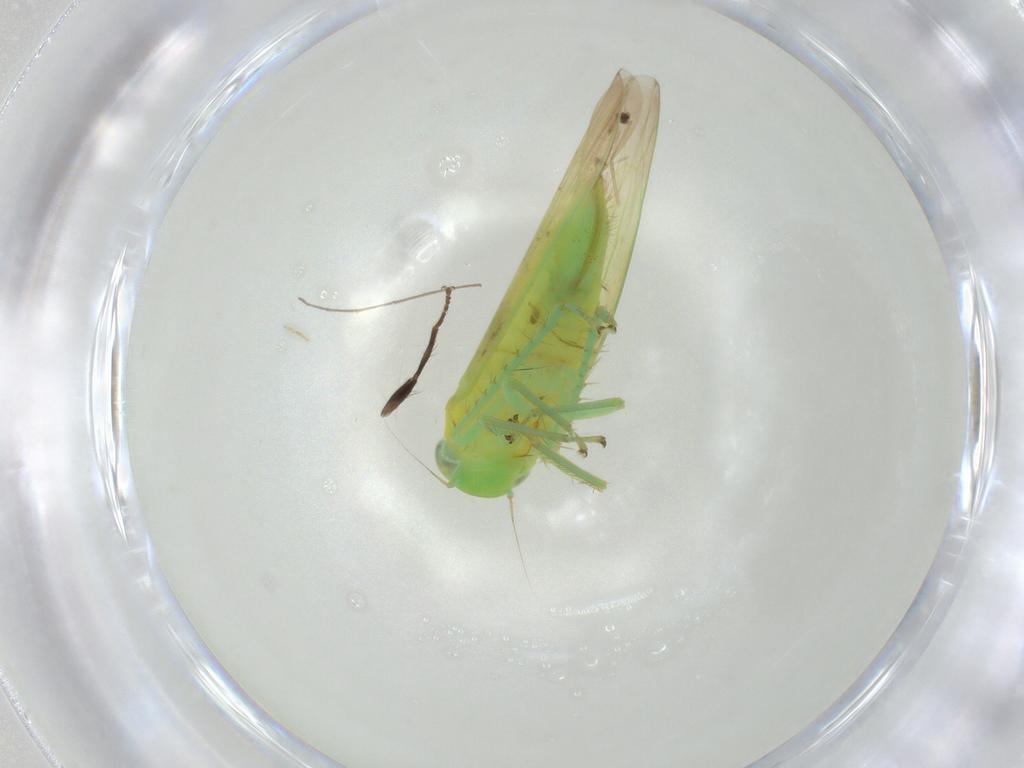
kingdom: Animalia
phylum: Arthropoda
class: Insecta
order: Hemiptera
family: Cicadellidae
